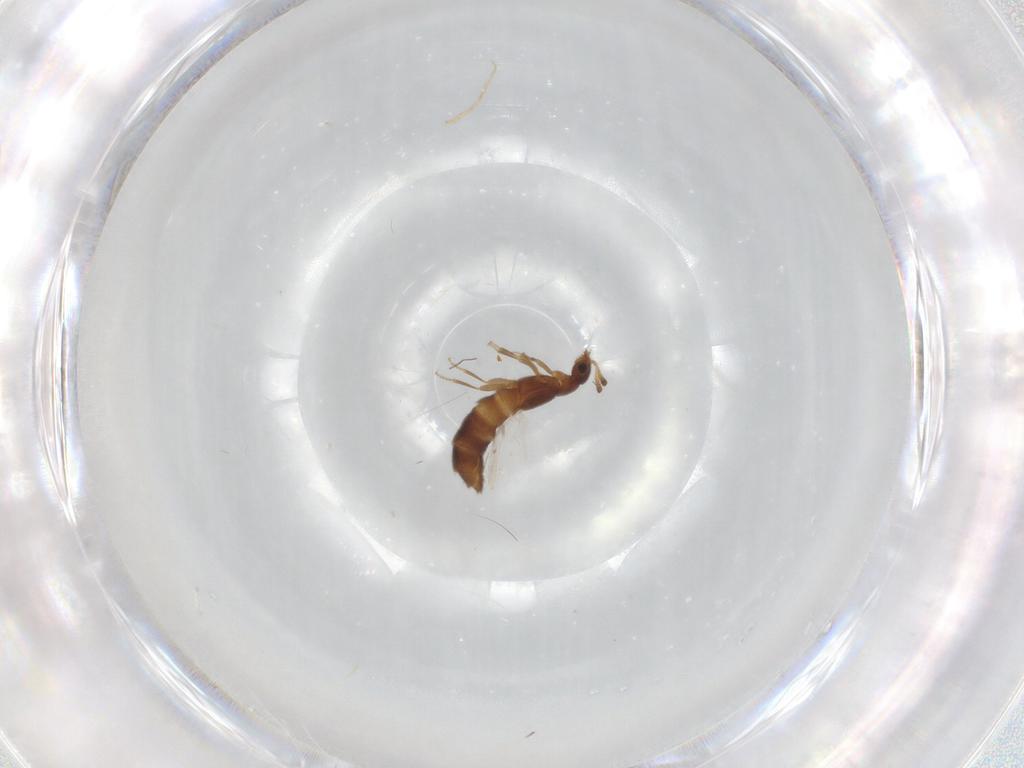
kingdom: Animalia
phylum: Arthropoda
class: Insecta
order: Coleoptera
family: Staphylinidae
